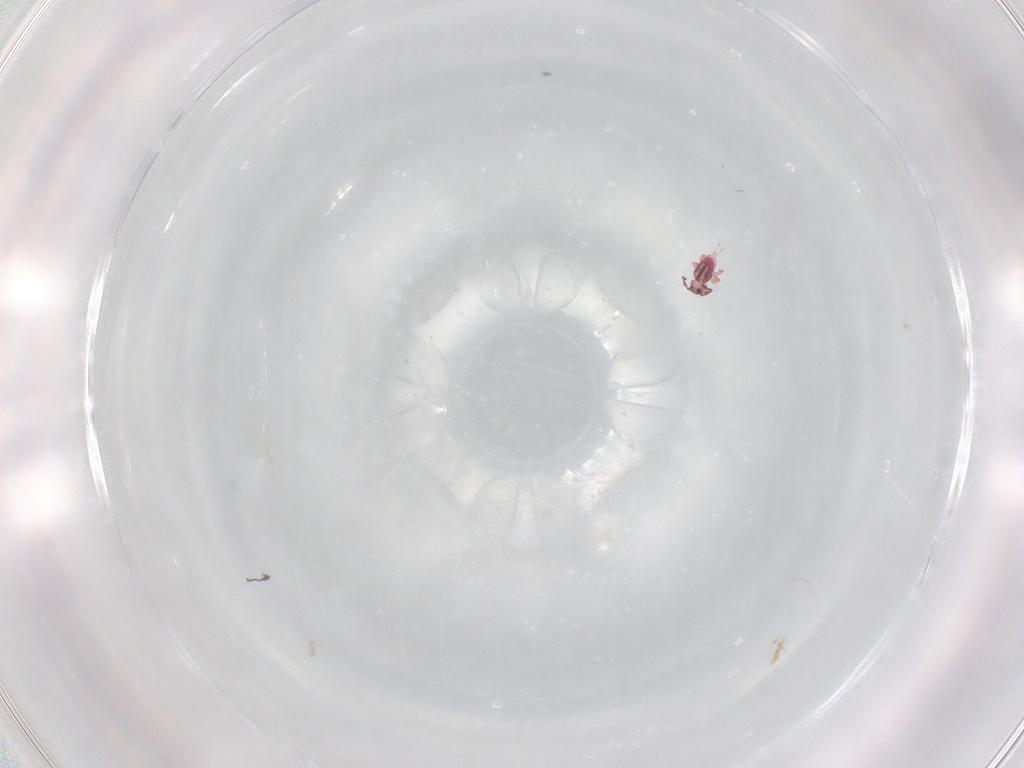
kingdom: Animalia
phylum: Arthropoda
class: Collembola
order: Symphypleona
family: Sminthurididae
